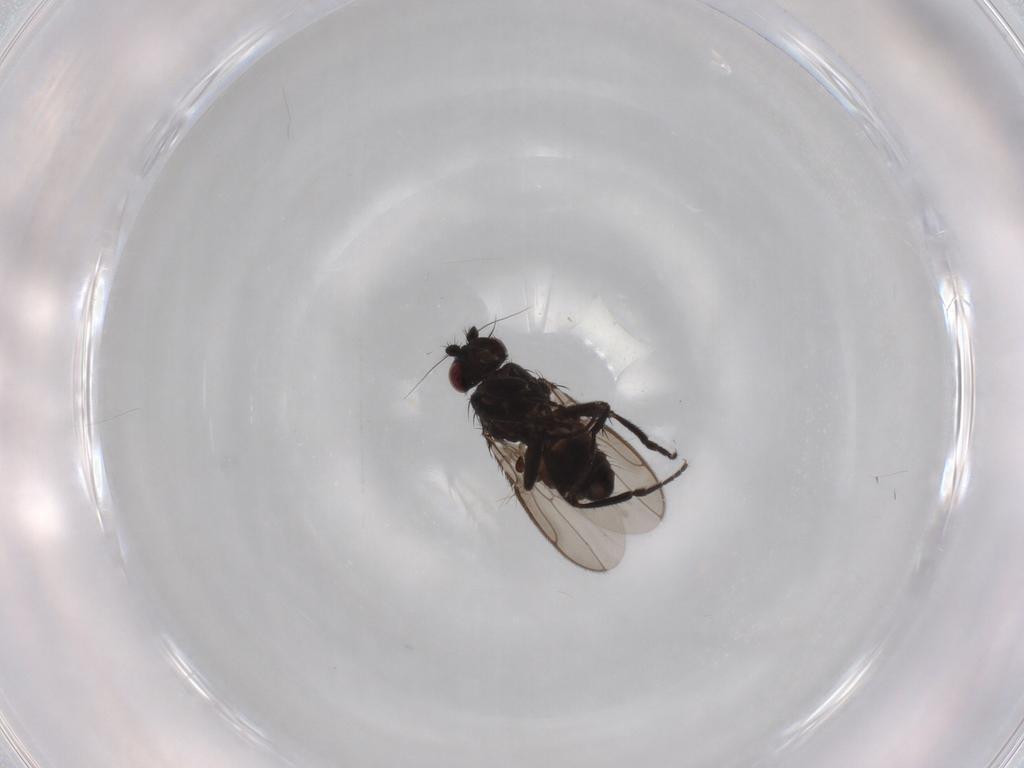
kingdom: Animalia
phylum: Arthropoda
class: Insecta
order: Diptera
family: Sphaeroceridae
